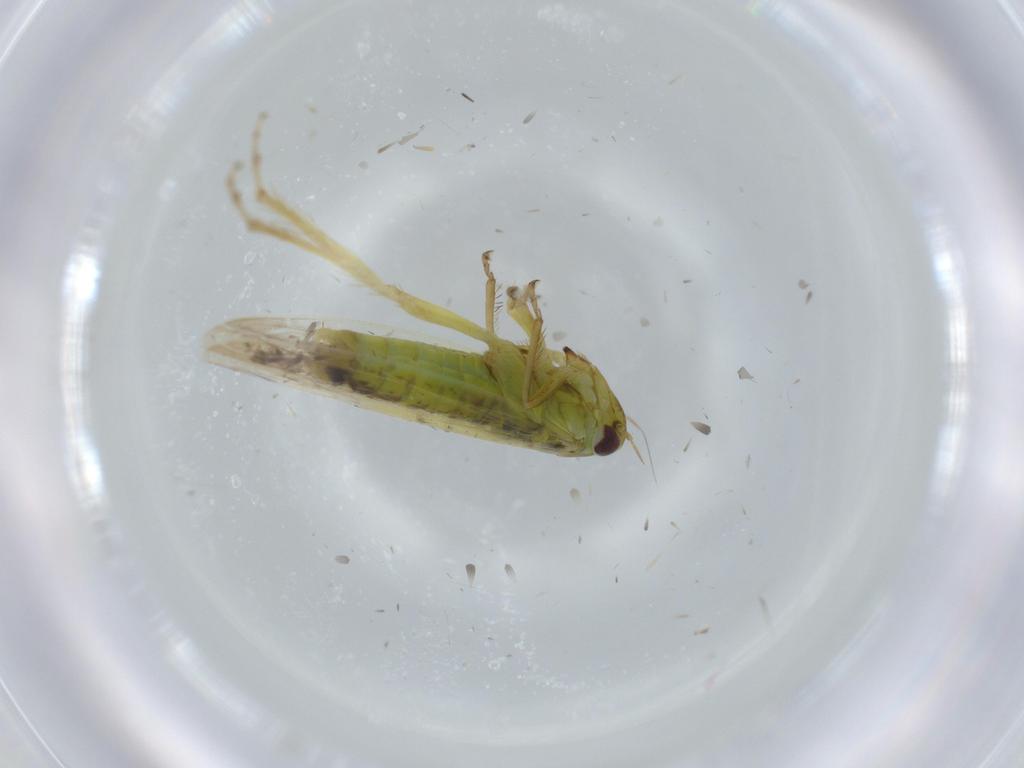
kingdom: Animalia
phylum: Arthropoda
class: Insecta
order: Hemiptera
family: Cicadellidae
